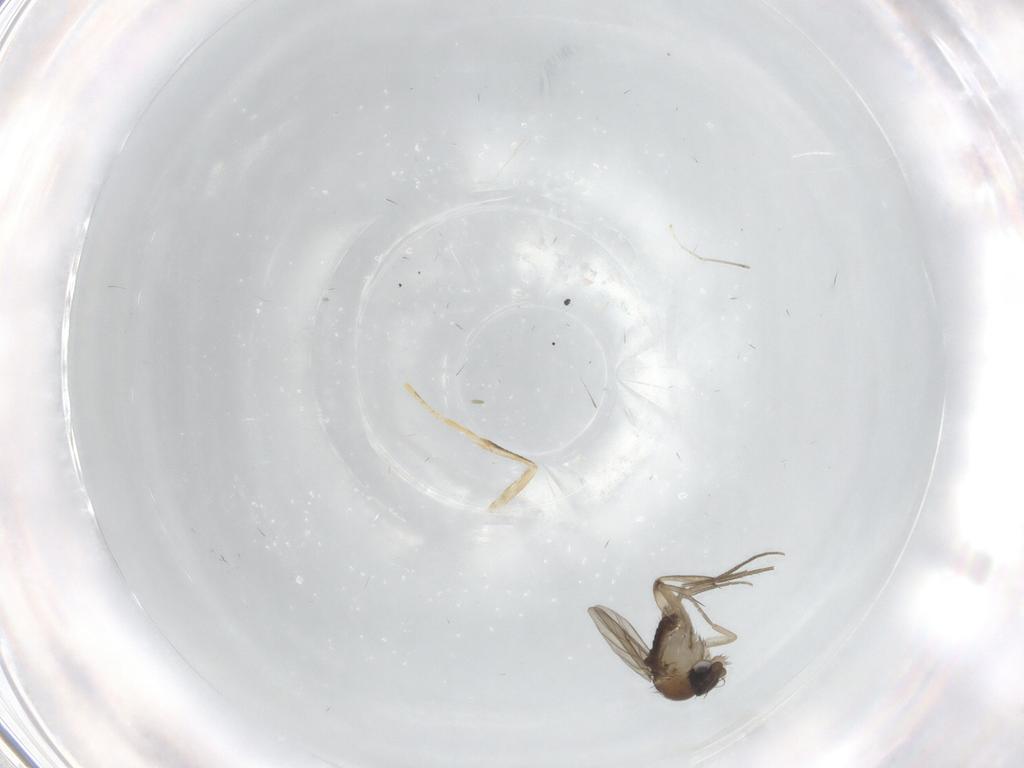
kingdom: Animalia
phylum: Arthropoda
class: Insecta
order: Diptera
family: Phoridae
